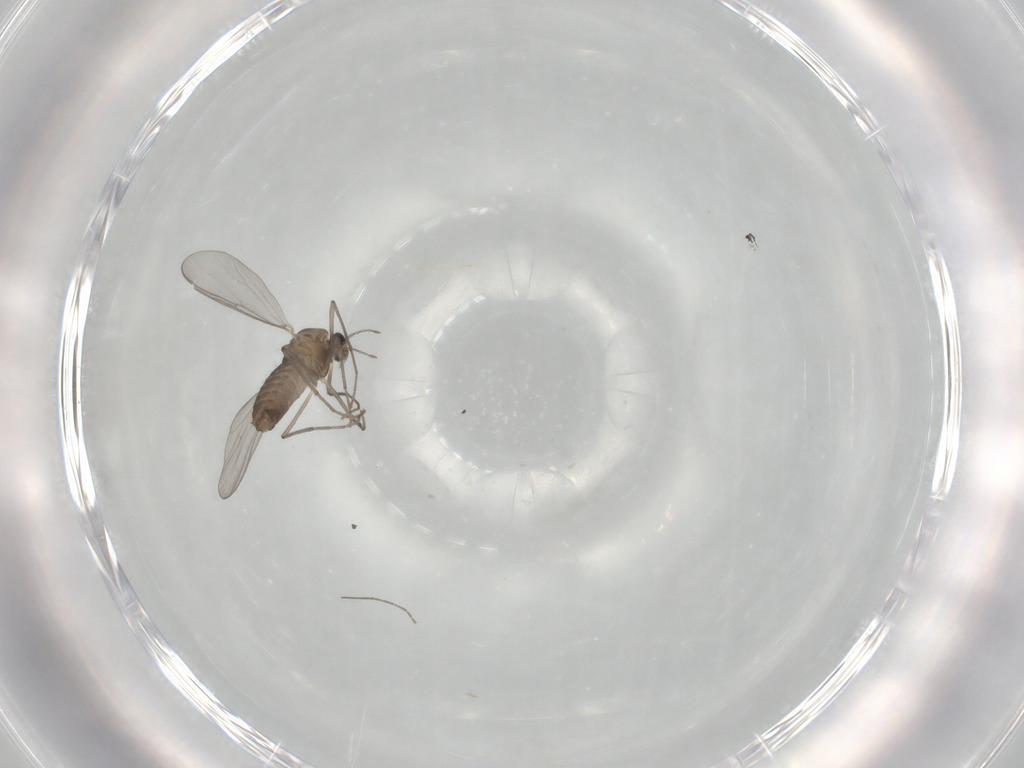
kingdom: Animalia
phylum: Arthropoda
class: Insecta
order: Diptera
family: Chironomidae
